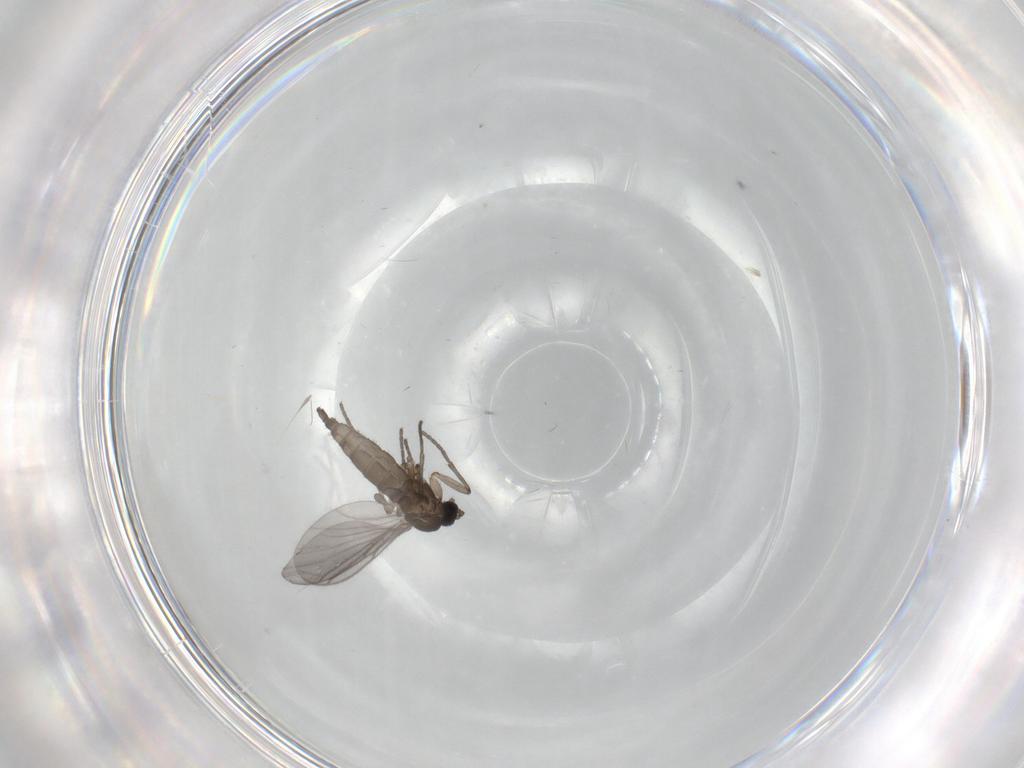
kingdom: Animalia
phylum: Arthropoda
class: Insecta
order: Diptera
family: Sciaridae
